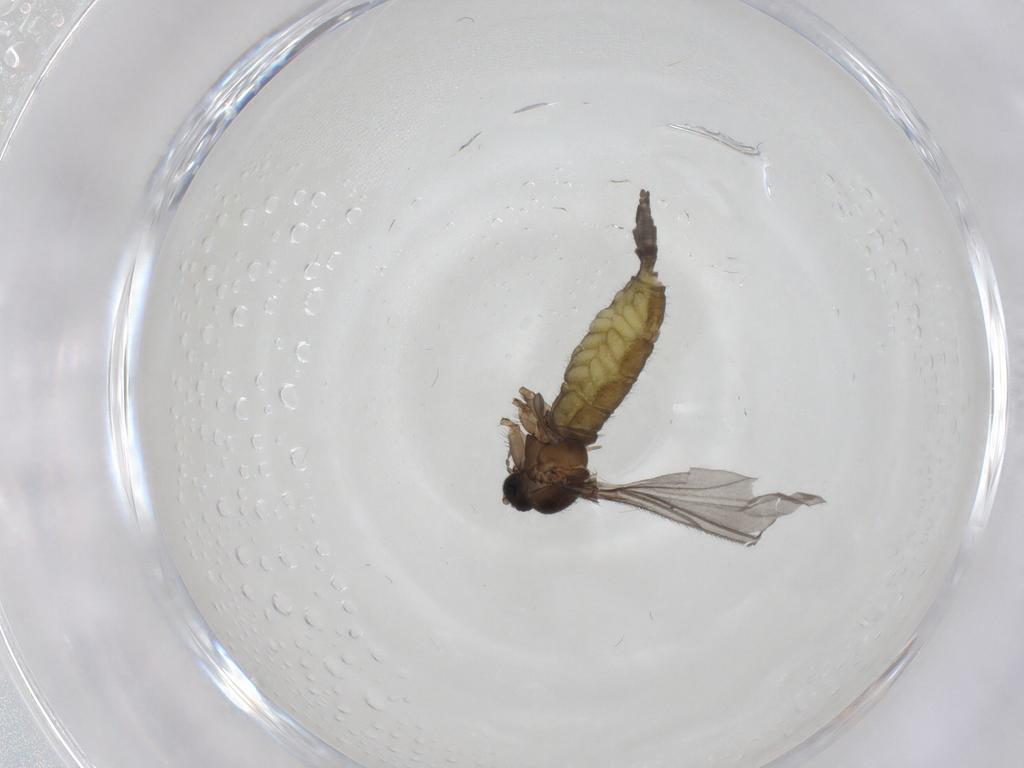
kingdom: Animalia
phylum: Arthropoda
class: Insecta
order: Diptera
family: Sciaridae
